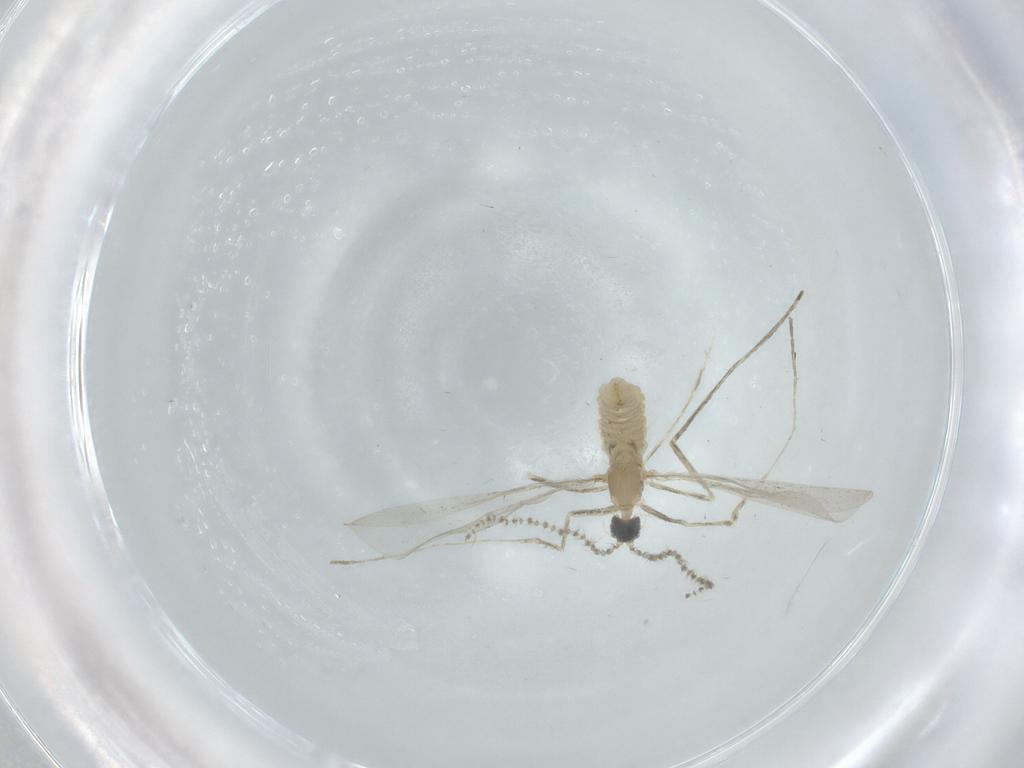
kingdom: Animalia
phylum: Arthropoda
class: Insecta
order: Diptera
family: Cecidomyiidae
